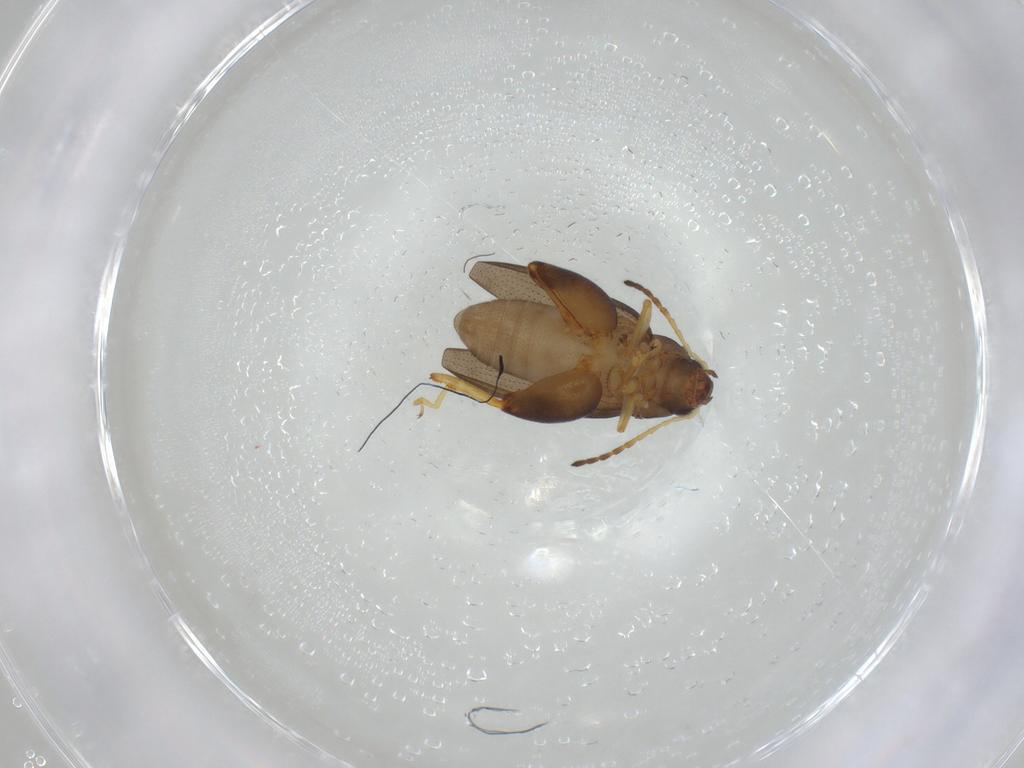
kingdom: Animalia
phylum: Arthropoda
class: Insecta
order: Coleoptera
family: Chrysomelidae
